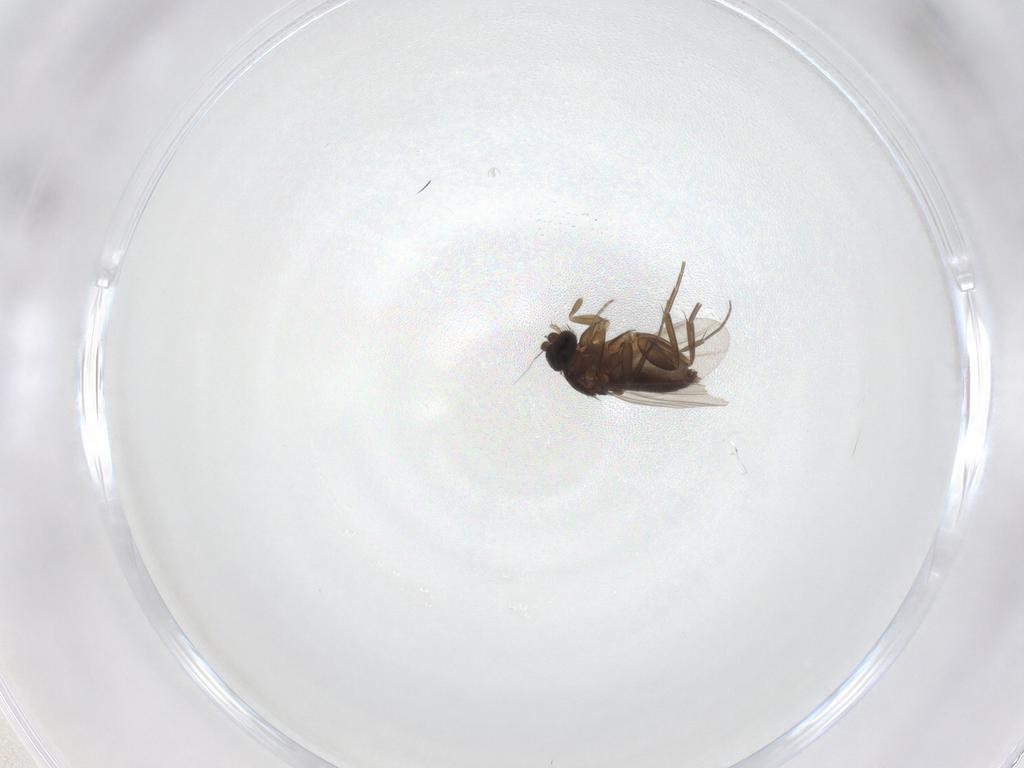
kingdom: Animalia
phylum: Arthropoda
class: Insecta
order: Diptera
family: Phoridae
